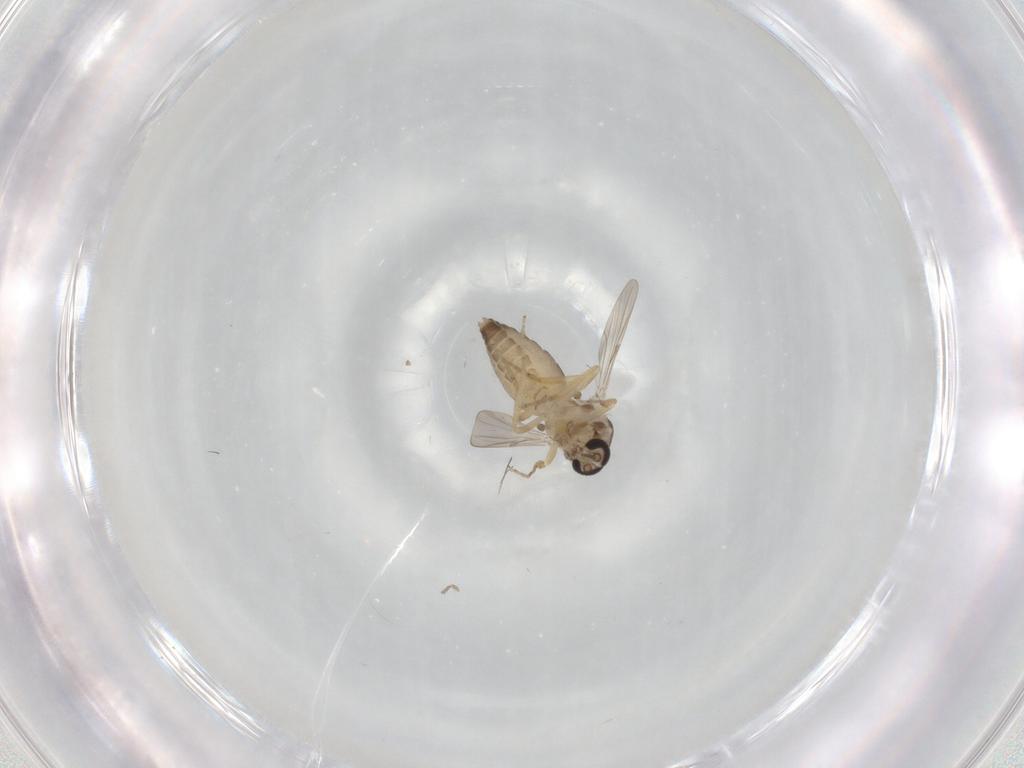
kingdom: Animalia
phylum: Arthropoda
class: Insecta
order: Diptera
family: Ceratopogonidae
